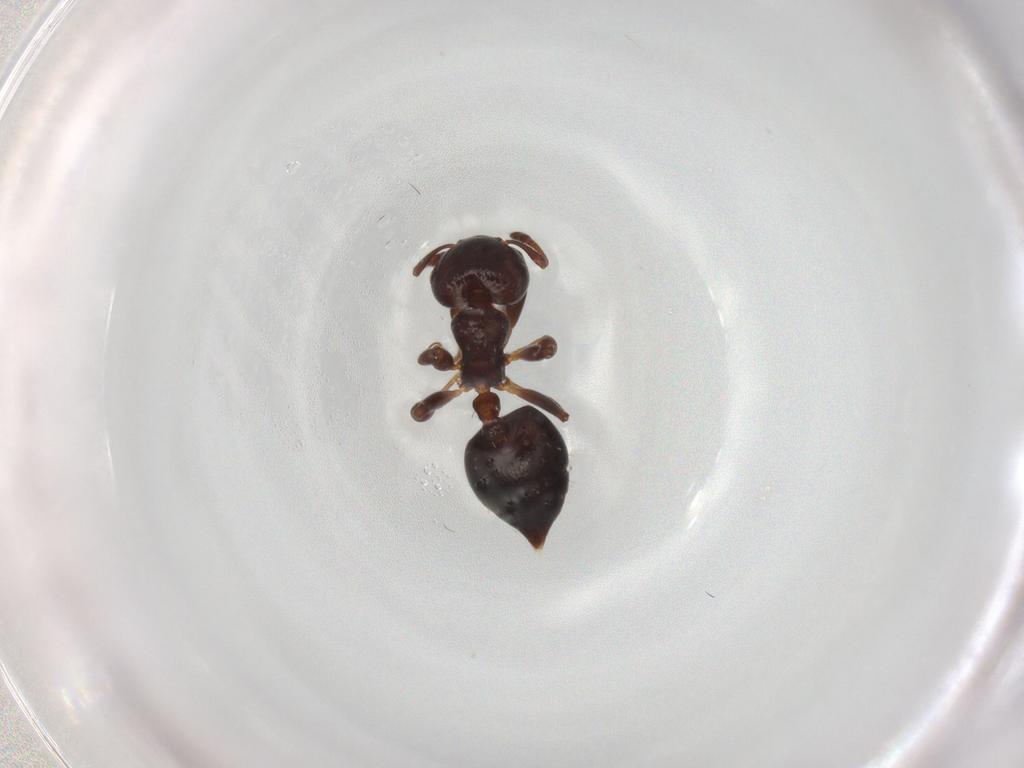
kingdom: Animalia
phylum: Arthropoda
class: Insecta
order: Hymenoptera
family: Formicidae
